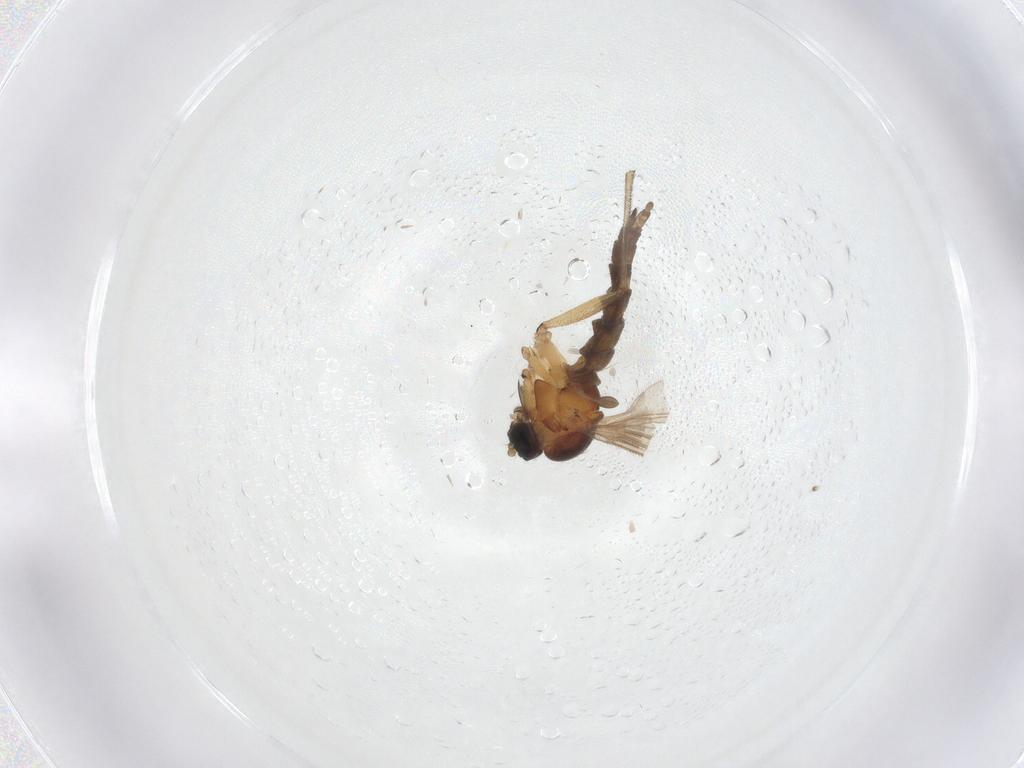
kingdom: Animalia
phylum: Arthropoda
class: Insecta
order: Diptera
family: Sciaridae
